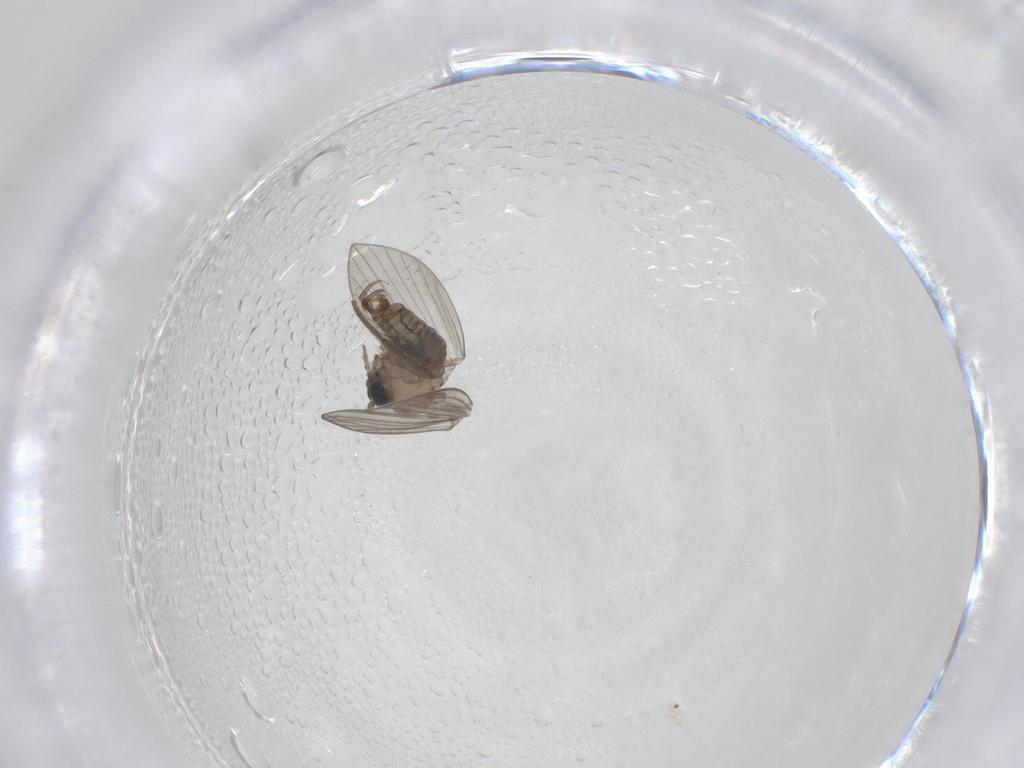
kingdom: Animalia
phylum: Arthropoda
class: Insecta
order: Diptera
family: Psychodidae
